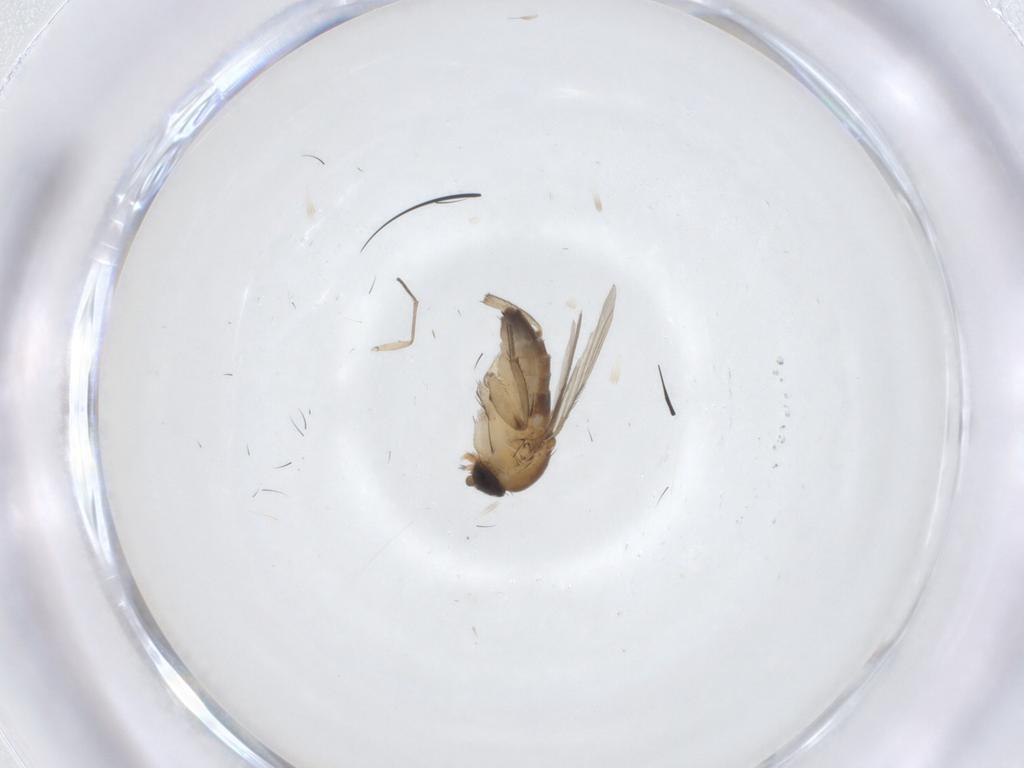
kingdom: Animalia
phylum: Arthropoda
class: Insecta
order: Diptera
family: Phoridae
